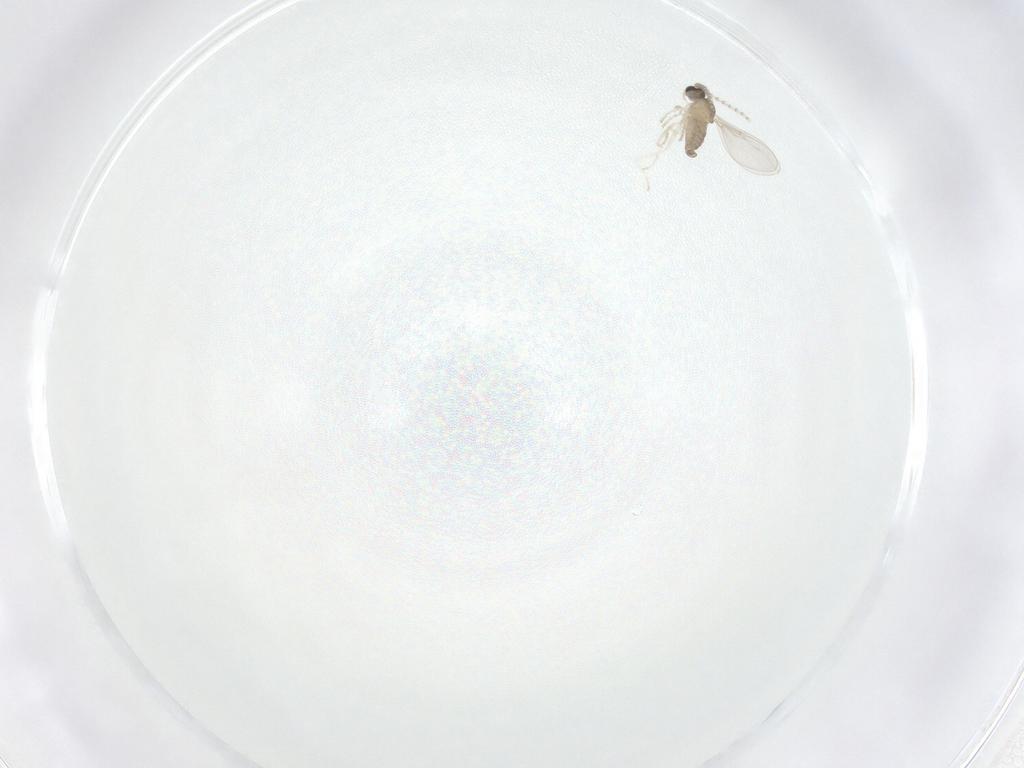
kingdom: Animalia
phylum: Arthropoda
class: Insecta
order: Diptera
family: Cecidomyiidae
